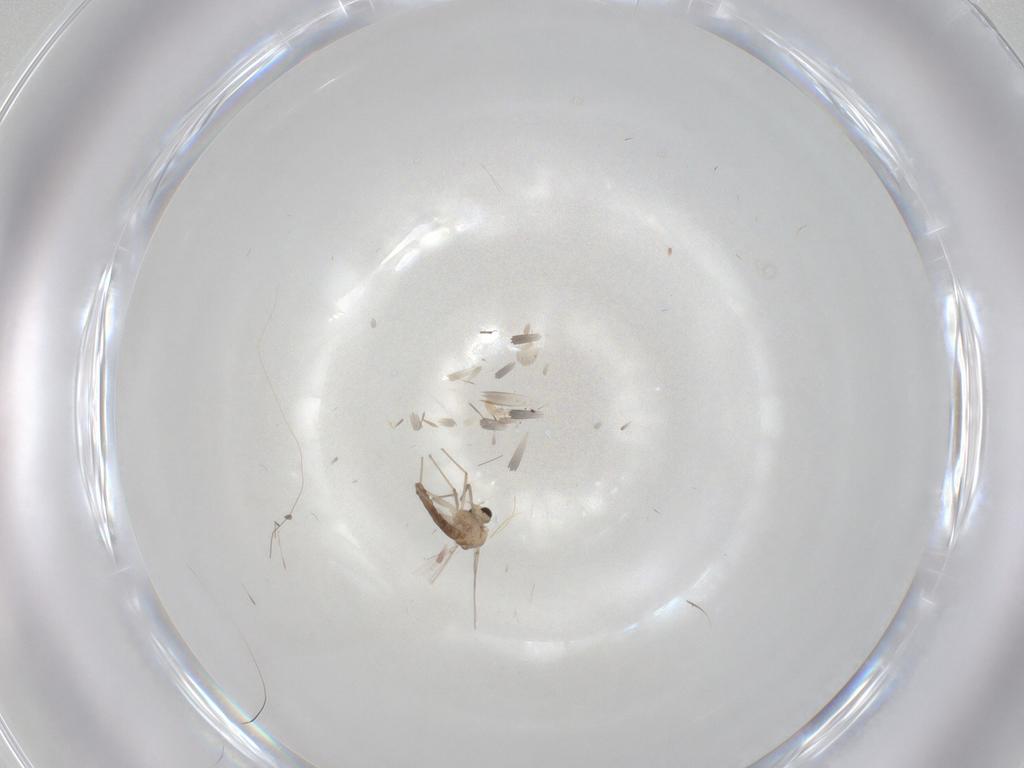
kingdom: Animalia
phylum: Arthropoda
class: Insecta
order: Diptera
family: Chironomidae
